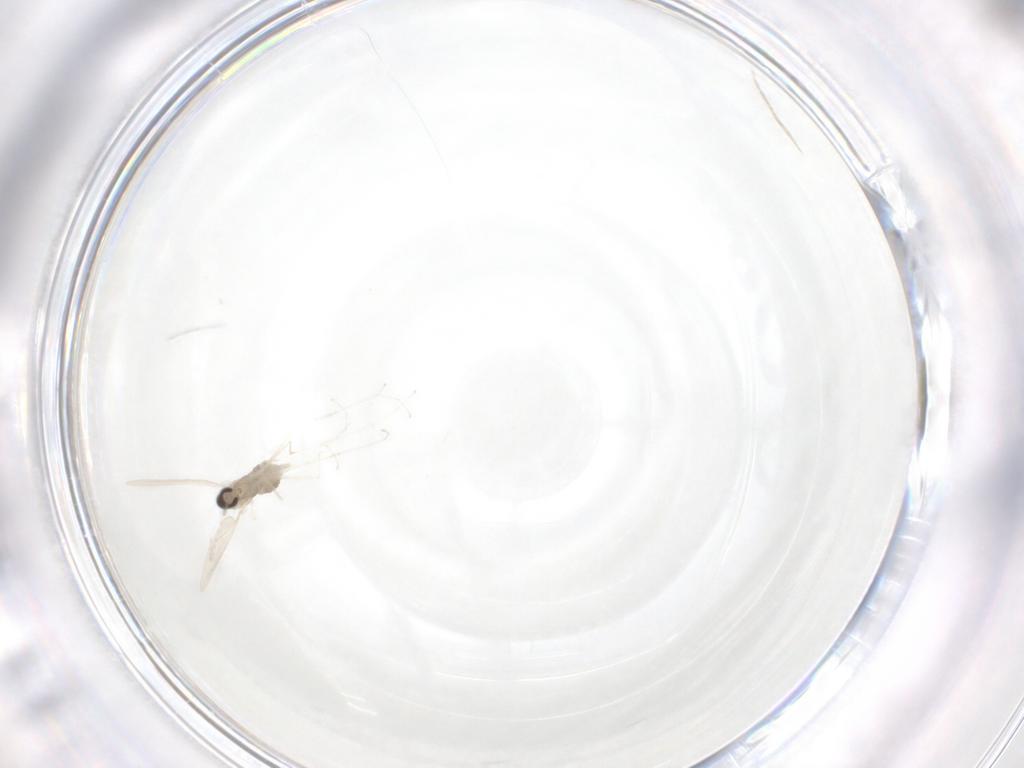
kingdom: Animalia
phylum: Arthropoda
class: Insecta
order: Diptera
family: Cecidomyiidae
